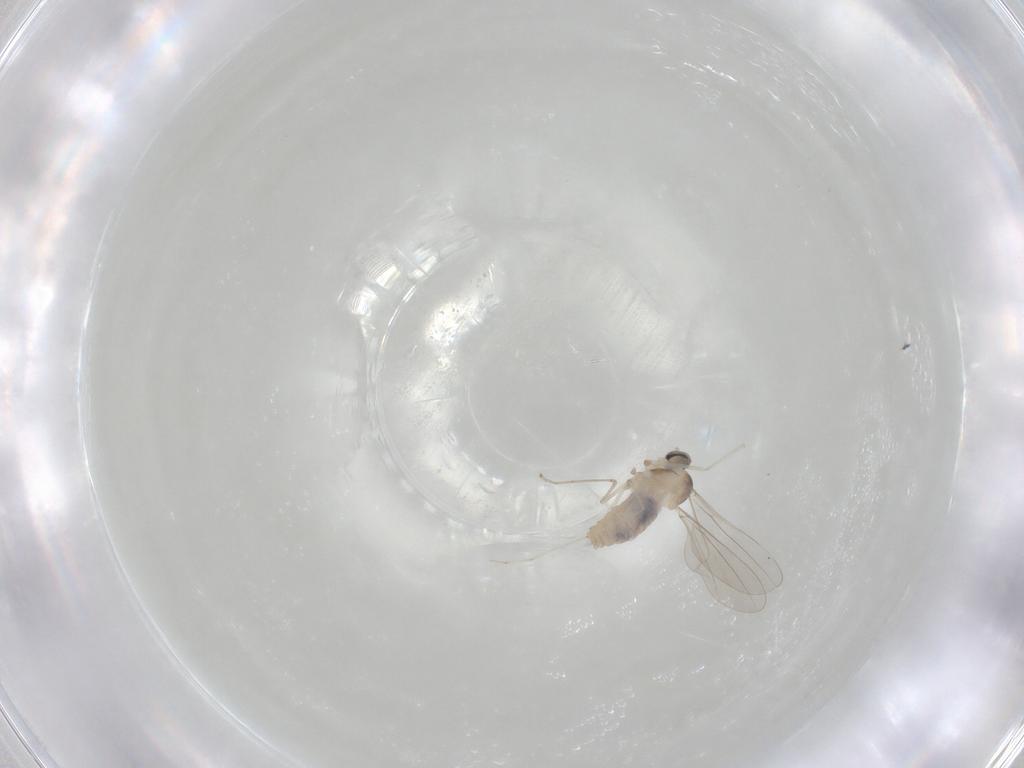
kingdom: Animalia
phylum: Arthropoda
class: Insecta
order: Diptera
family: Cecidomyiidae
